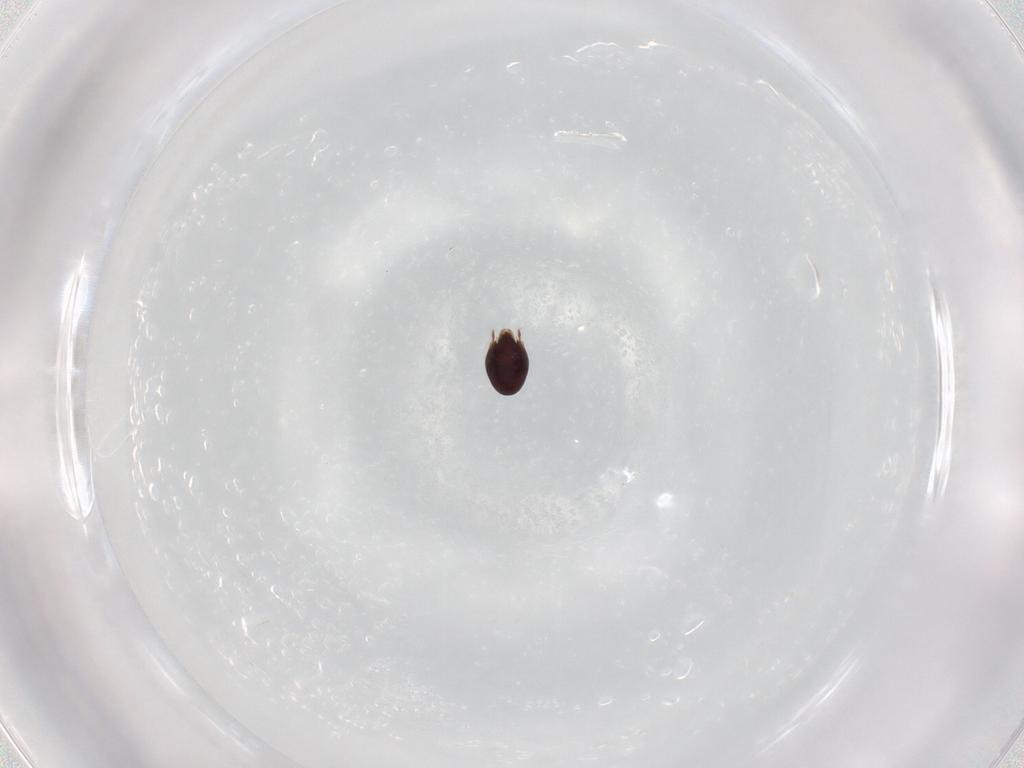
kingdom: Animalia
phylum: Arthropoda
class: Arachnida
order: Sarcoptiformes
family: Achipteriidae
